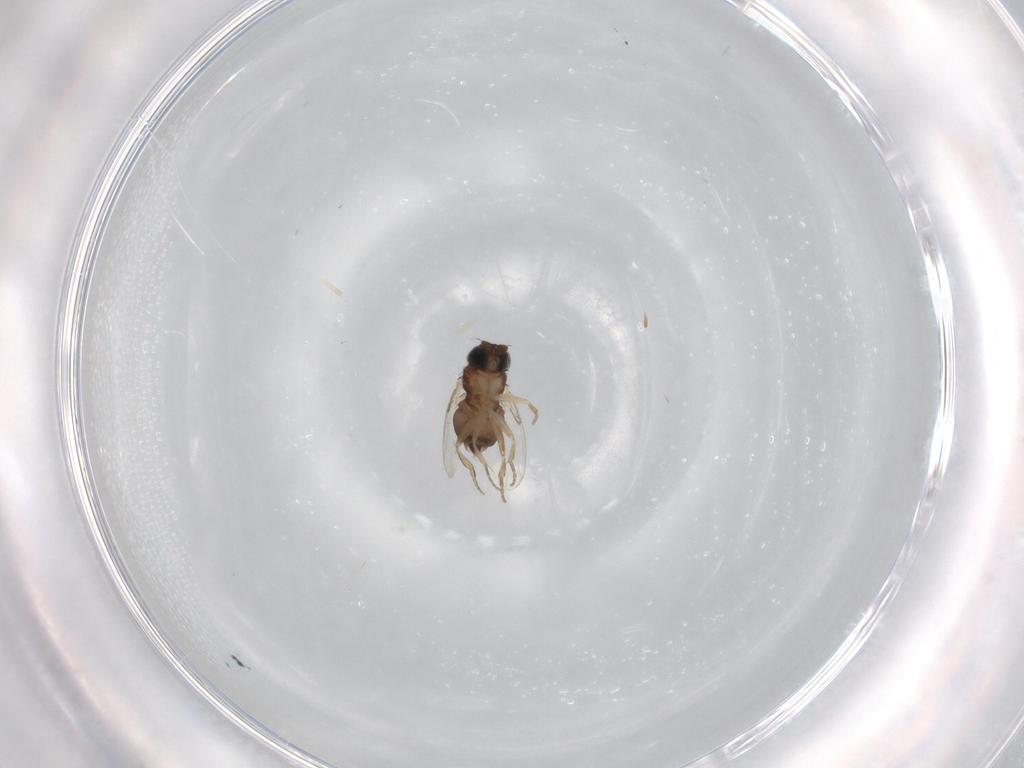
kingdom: Animalia
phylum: Arthropoda
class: Insecta
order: Diptera
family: Phoridae
